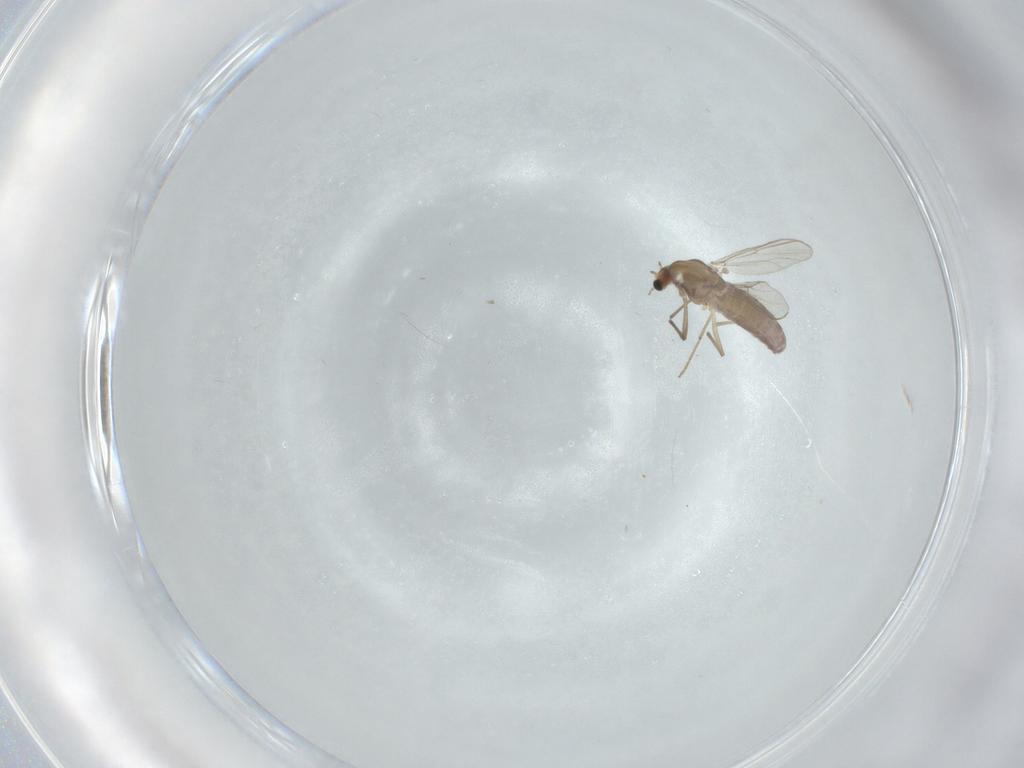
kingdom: Animalia
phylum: Arthropoda
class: Insecta
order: Diptera
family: Chironomidae
